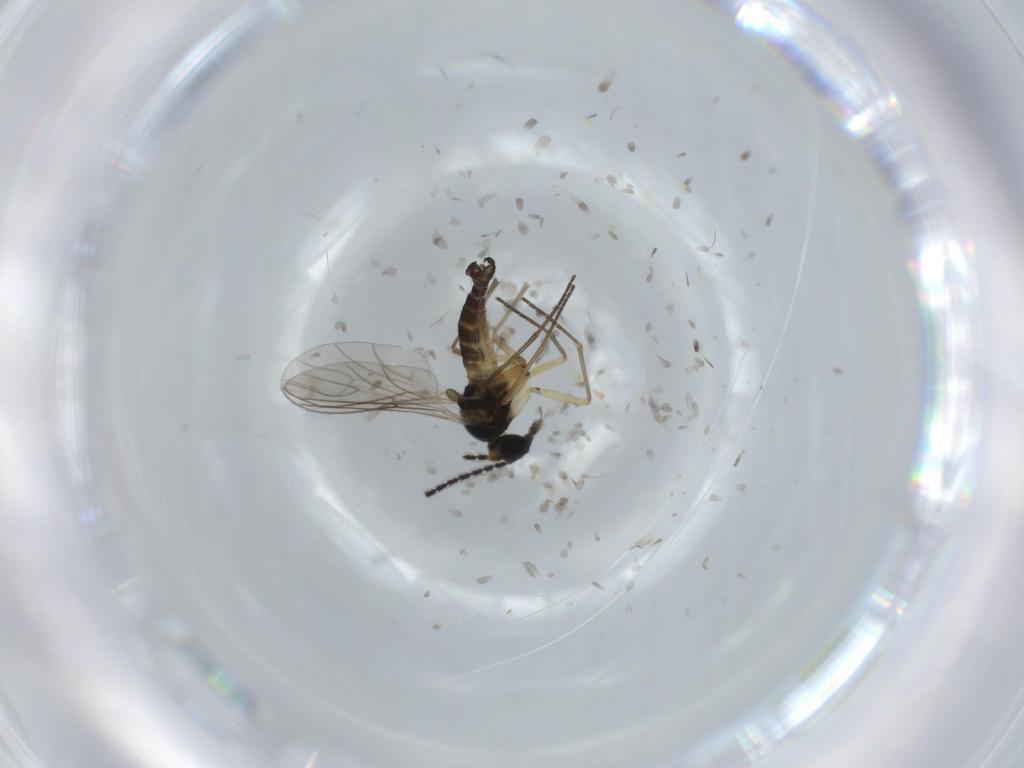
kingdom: Animalia
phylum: Arthropoda
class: Insecta
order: Diptera
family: Sciaridae
